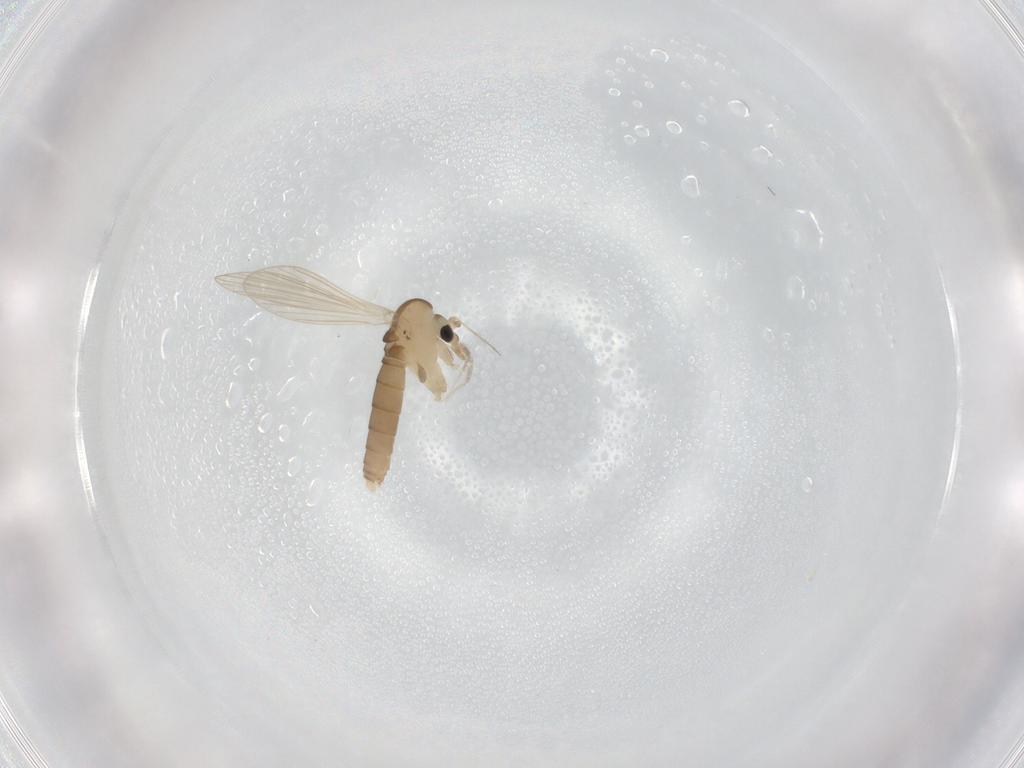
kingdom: Animalia
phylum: Arthropoda
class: Insecta
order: Diptera
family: Psychodidae
